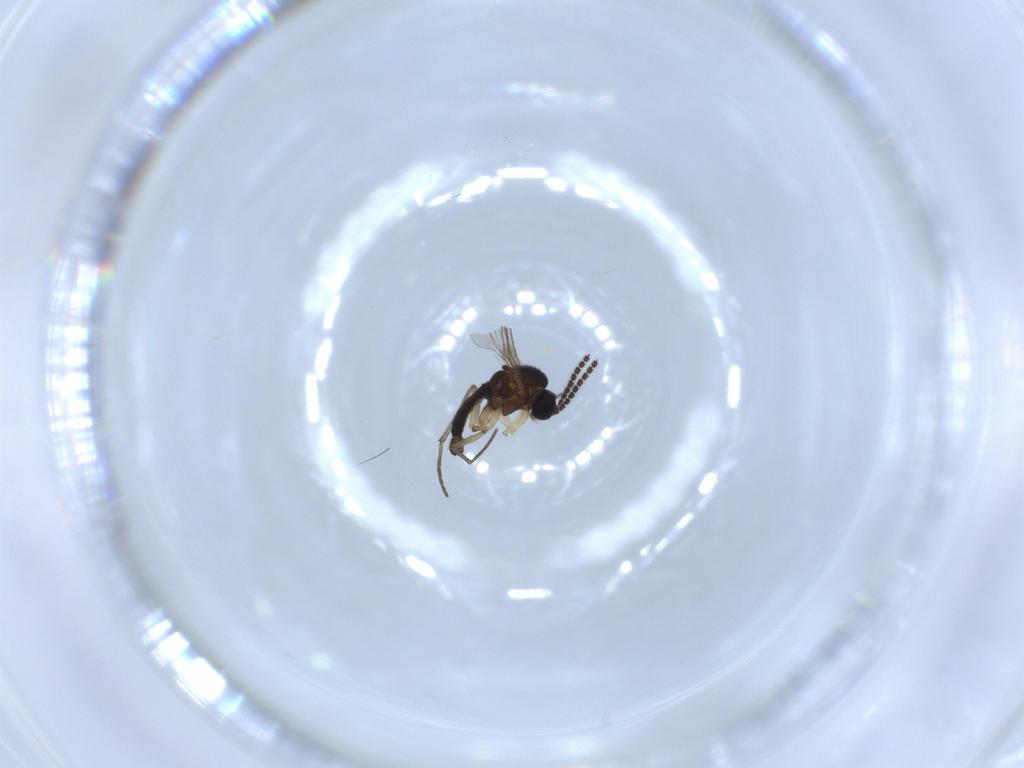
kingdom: Animalia
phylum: Arthropoda
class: Insecta
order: Diptera
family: Sciaridae
